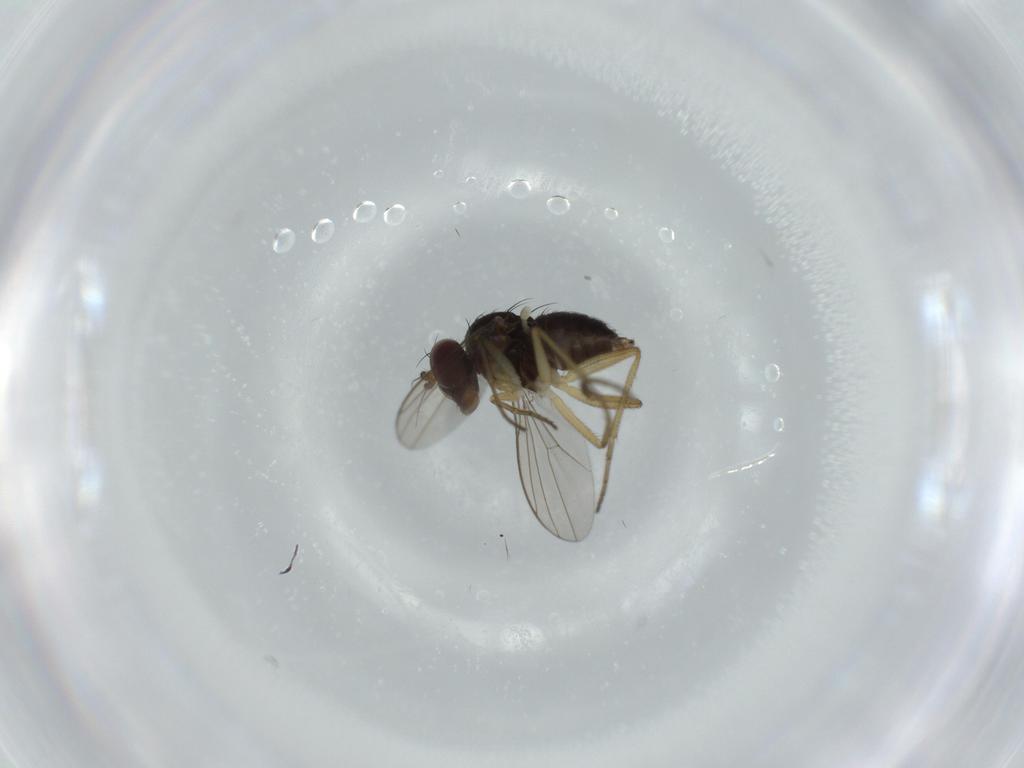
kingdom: Animalia
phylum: Arthropoda
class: Insecta
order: Diptera
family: Dolichopodidae
